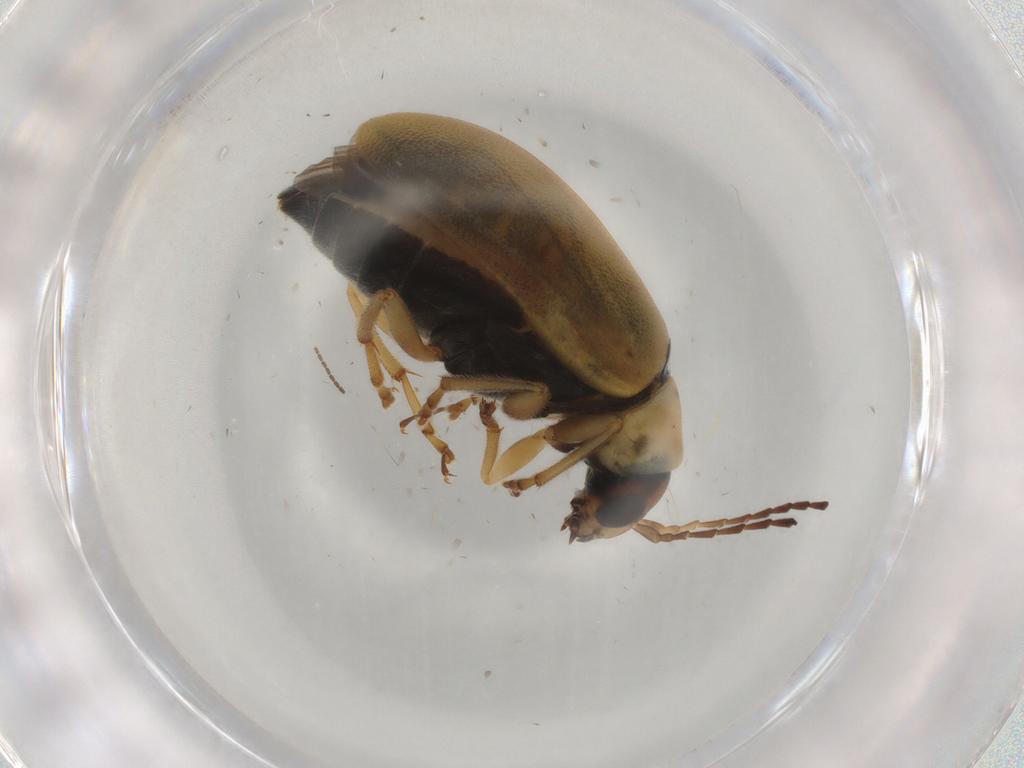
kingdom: Animalia
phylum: Arthropoda
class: Insecta
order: Coleoptera
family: Chrysomelidae
